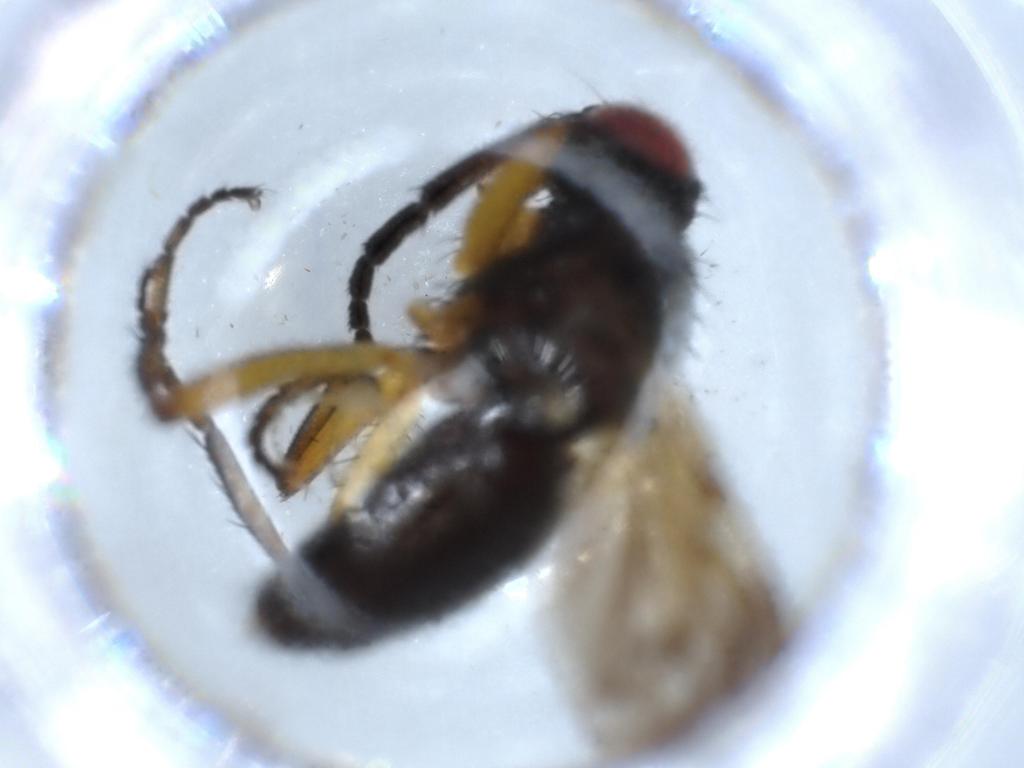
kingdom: Animalia
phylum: Arthropoda
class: Insecta
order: Diptera
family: Calliphoridae
